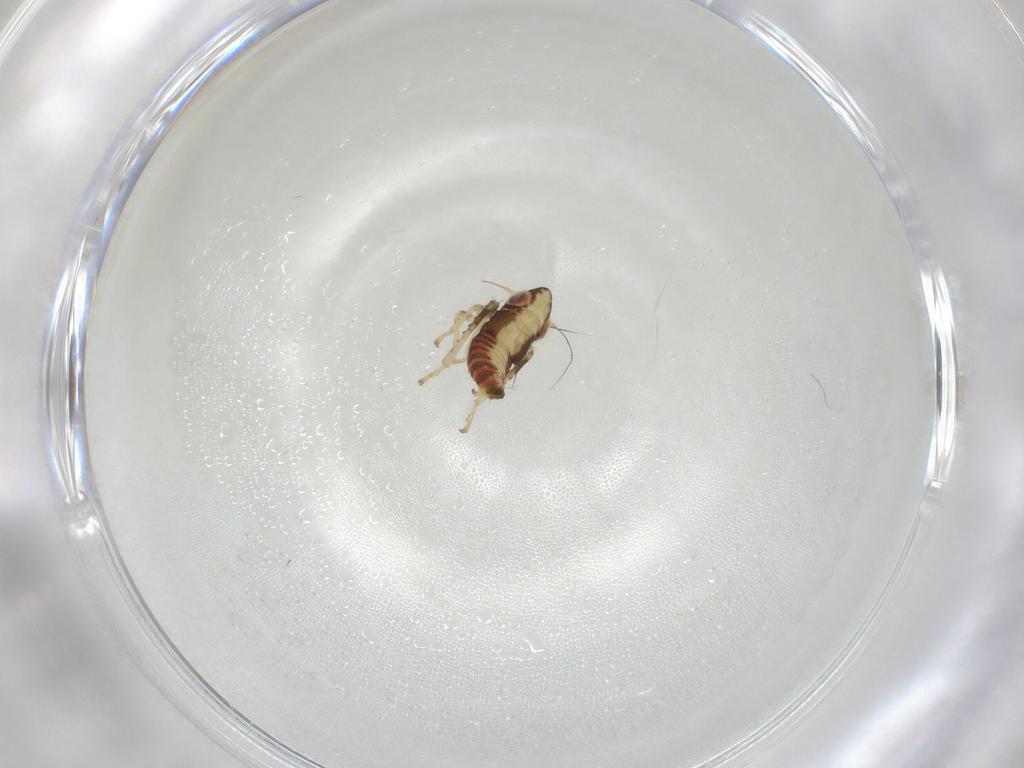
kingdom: Animalia
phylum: Arthropoda
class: Insecta
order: Hemiptera
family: Cicadellidae
